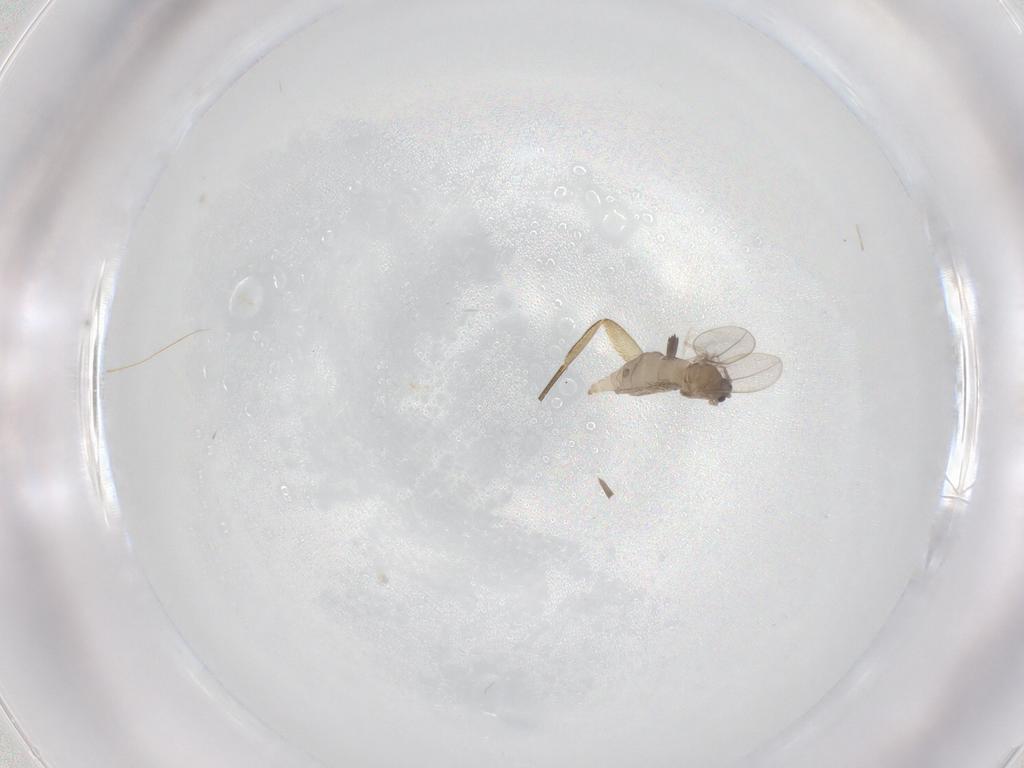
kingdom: Animalia
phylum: Arthropoda
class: Insecta
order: Diptera
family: Phoridae
